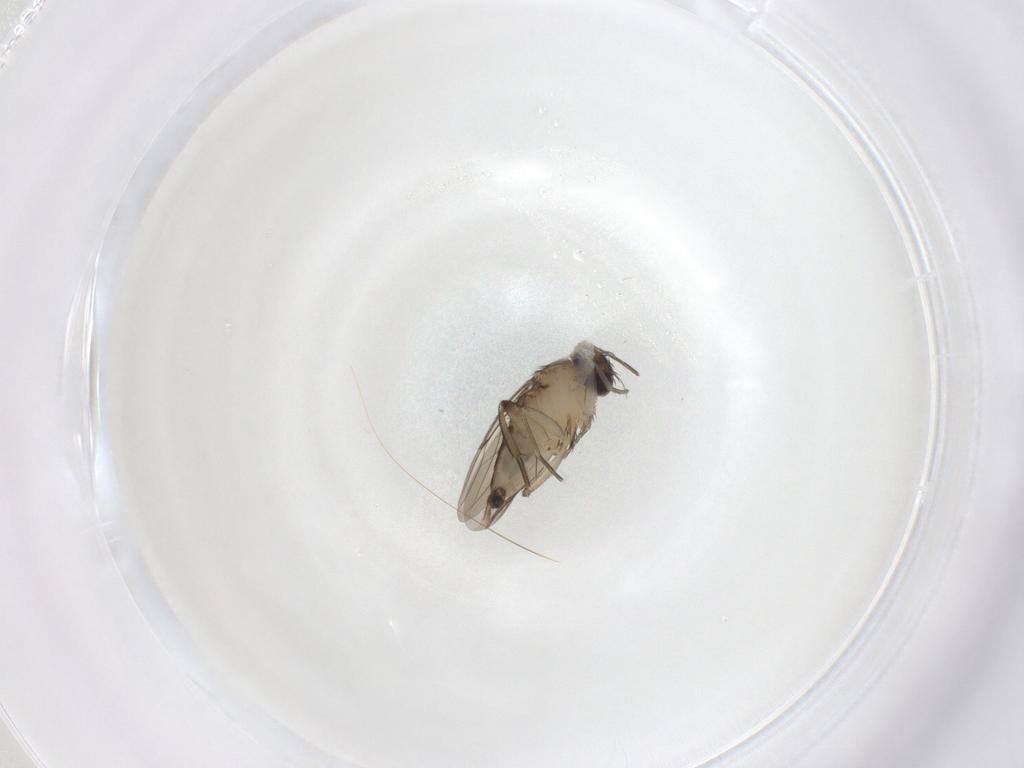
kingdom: Animalia
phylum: Arthropoda
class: Insecta
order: Diptera
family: Phoridae
